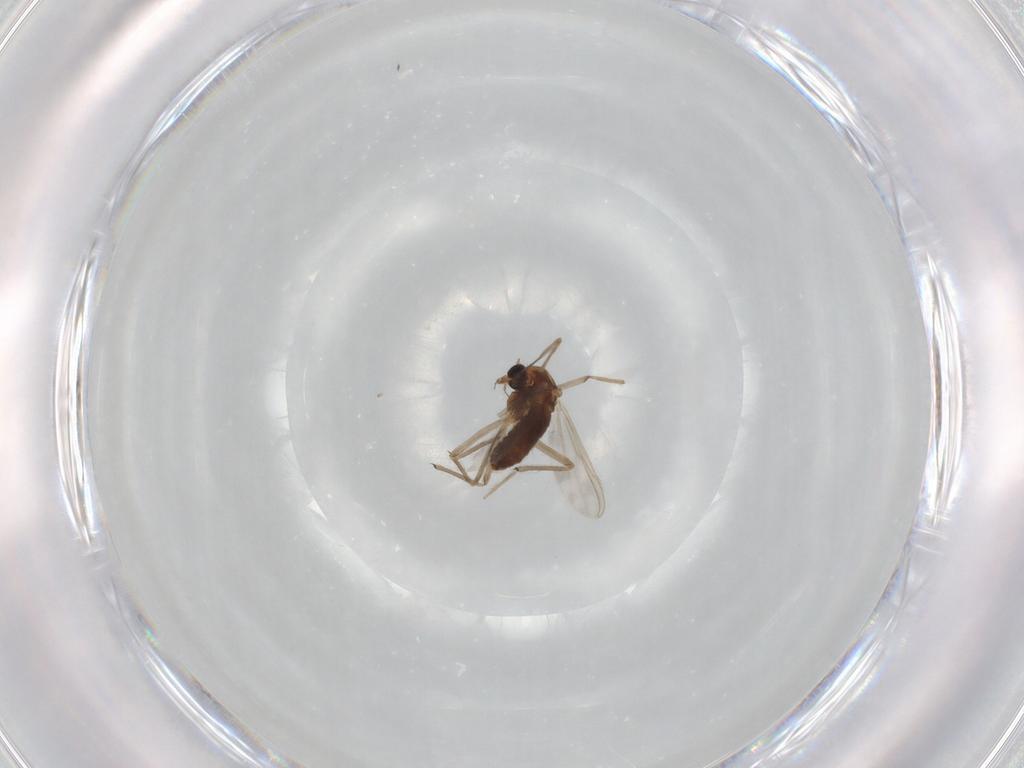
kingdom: Animalia
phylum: Arthropoda
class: Insecta
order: Diptera
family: Chironomidae
